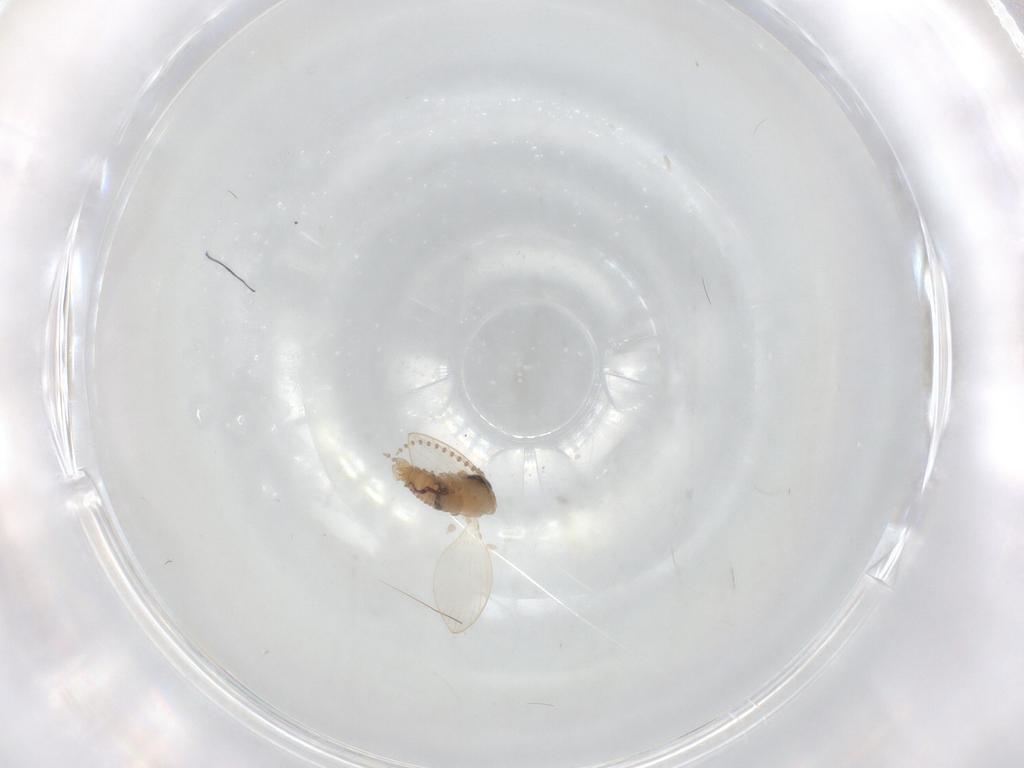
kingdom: Animalia
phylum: Arthropoda
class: Insecta
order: Diptera
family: Psychodidae
